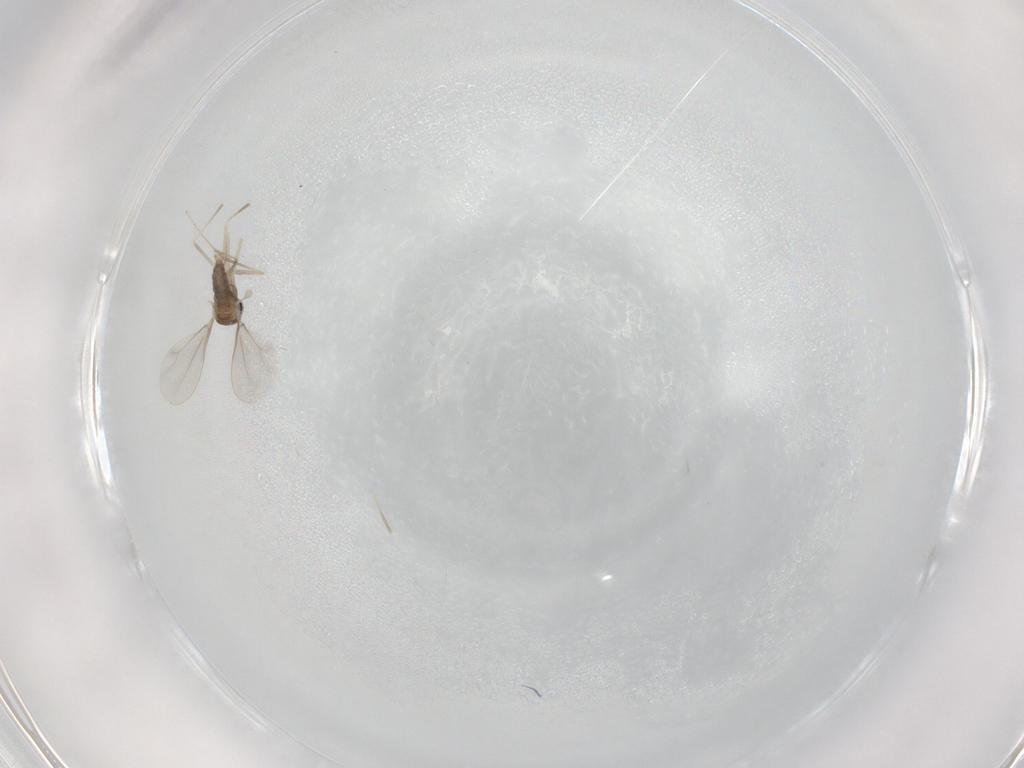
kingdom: Animalia
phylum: Arthropoda
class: Insecta
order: Diptera
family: Cecidomyiidae
